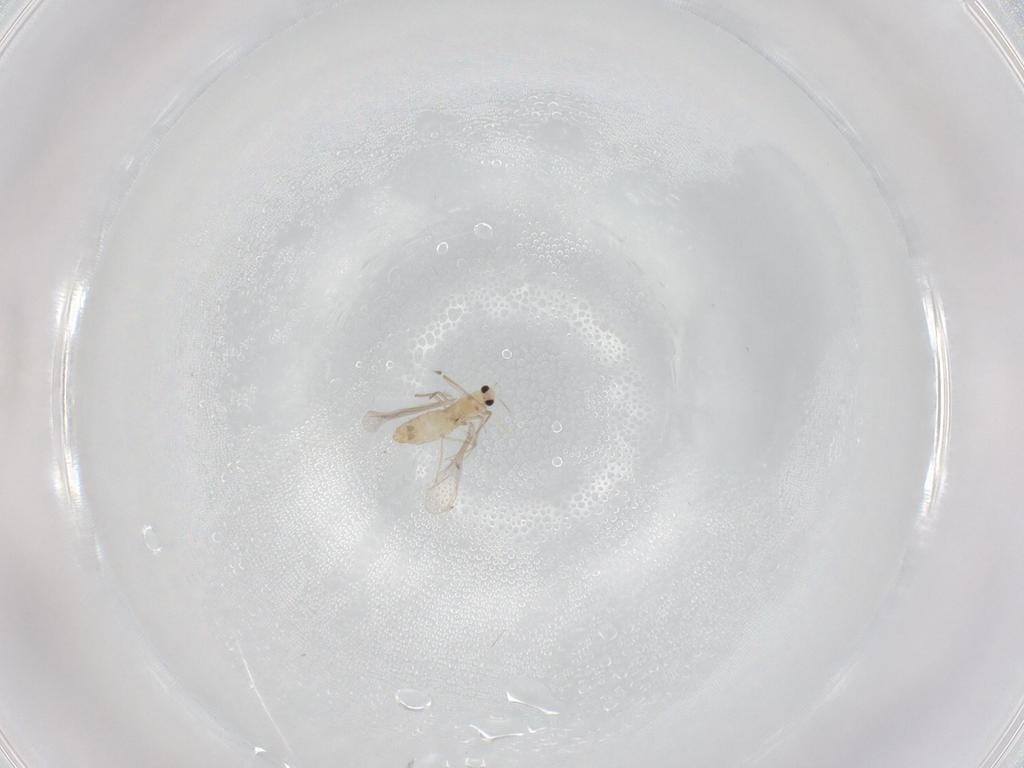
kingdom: Animalia
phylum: Arthropoda
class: Insecta
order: Diptera
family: Chironomidae
